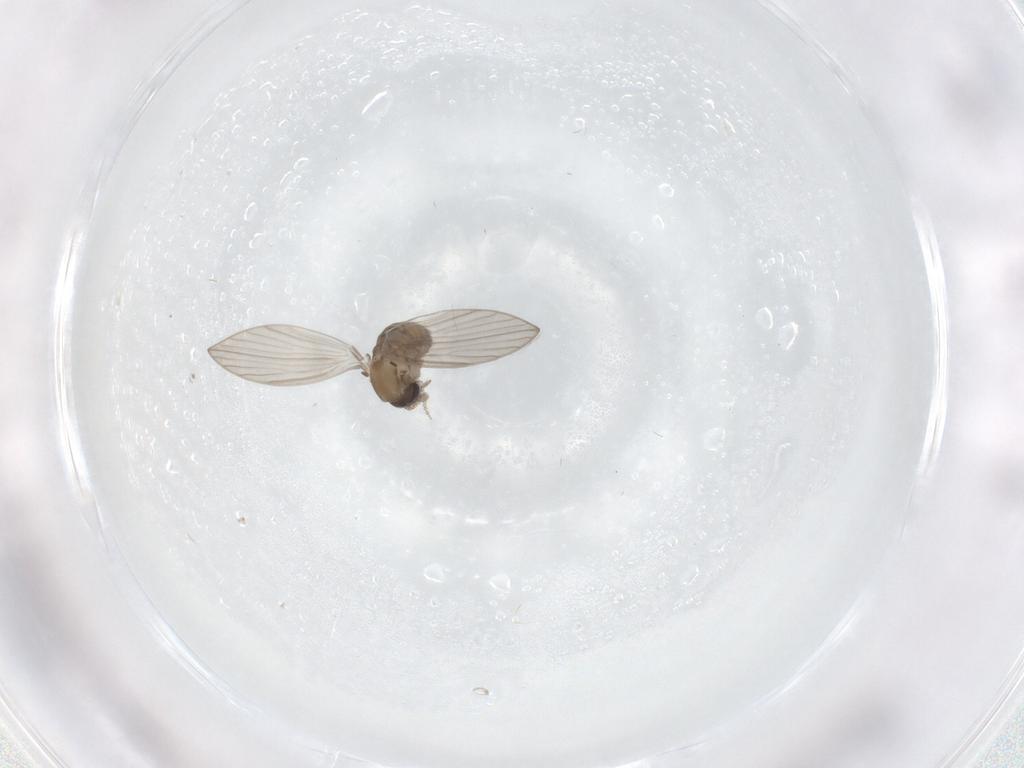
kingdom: Animalia
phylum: Arthropoda
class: Insecta
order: Diptera
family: Psychodidae
